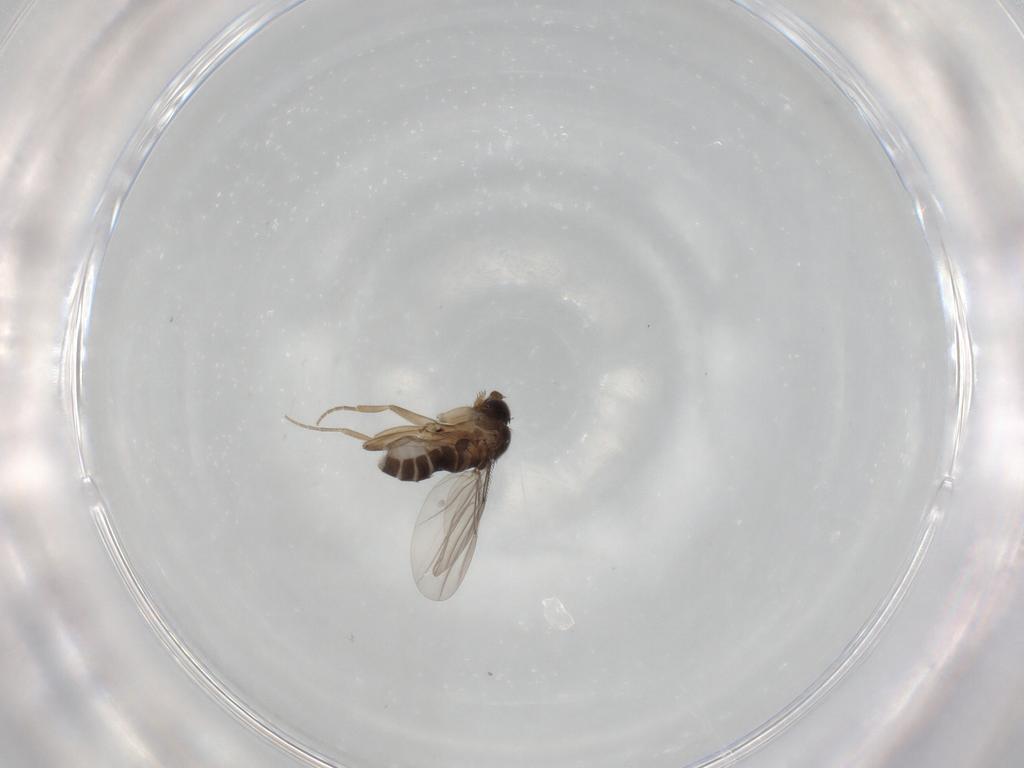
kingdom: Animalia
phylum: Arthropoda
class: Insecta
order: Diptera
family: Phoridae
